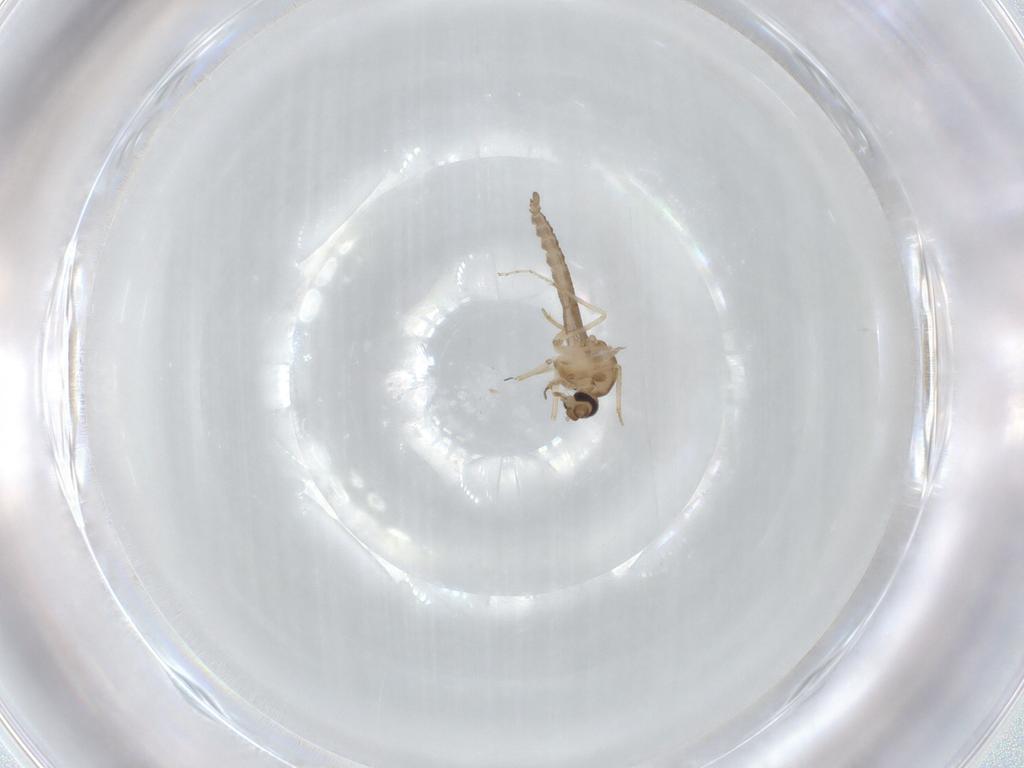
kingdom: Animalia
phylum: Arthropoda
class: Insecta
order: Diptera
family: Ceratopogonidae
